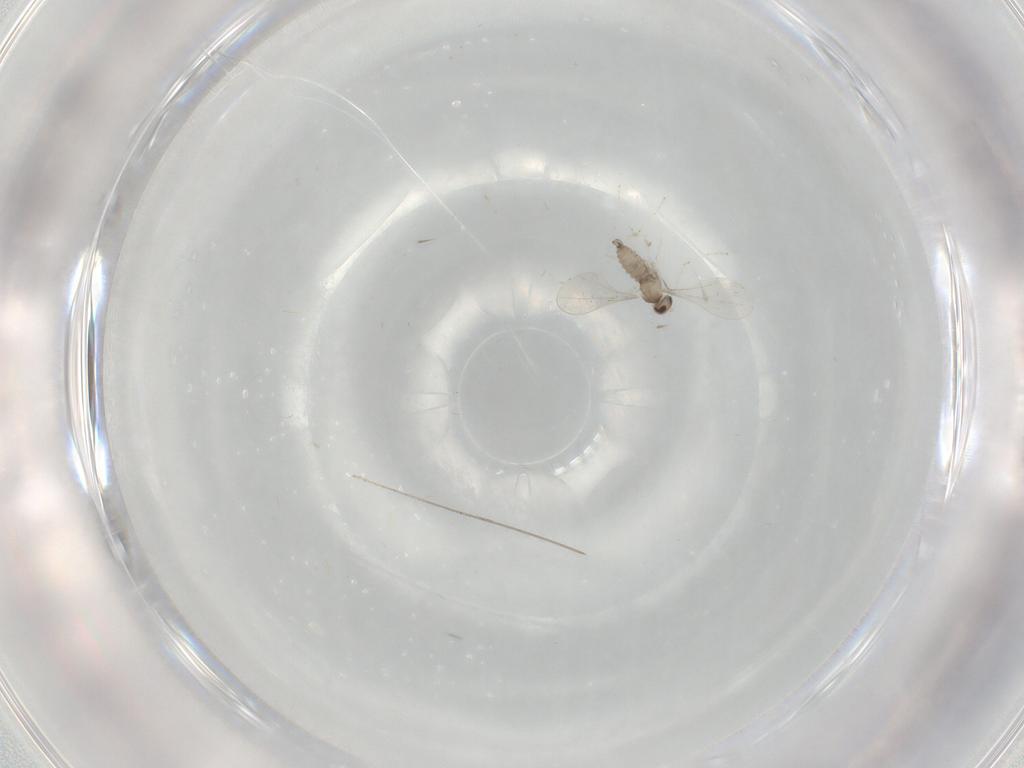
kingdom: Animalia
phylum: Arthropoda
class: Insecta
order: Diptera
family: Cecidomyiidae
